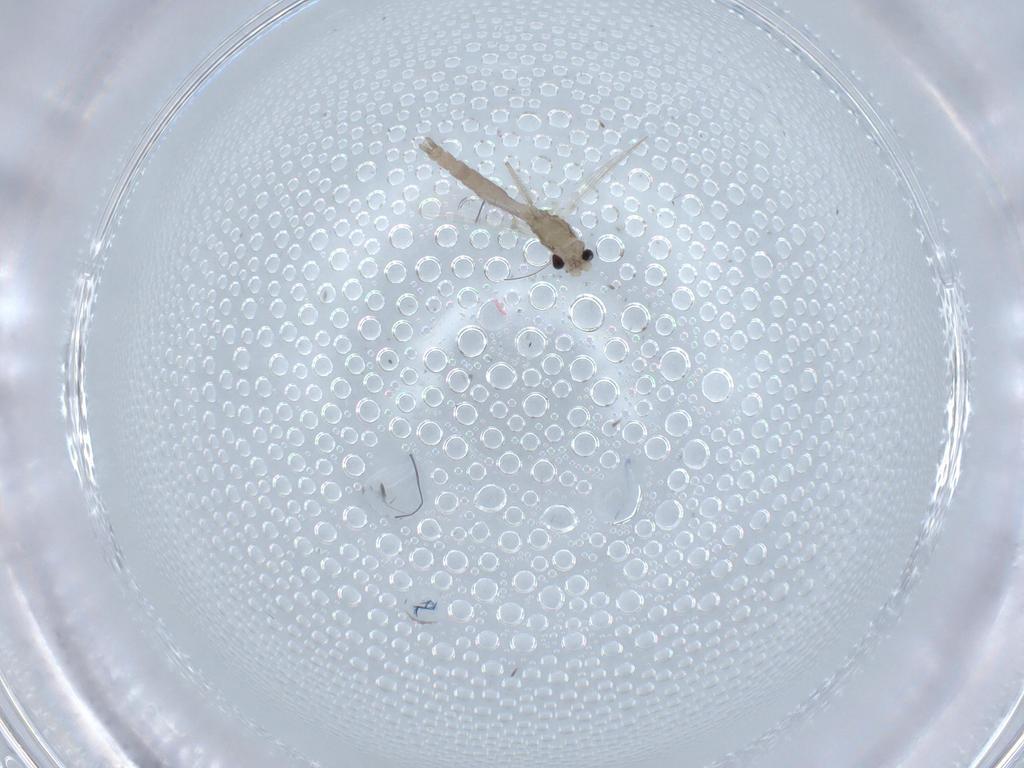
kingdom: Animalia
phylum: Arthropoda
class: Insecta
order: Diptera
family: Chironomidae
